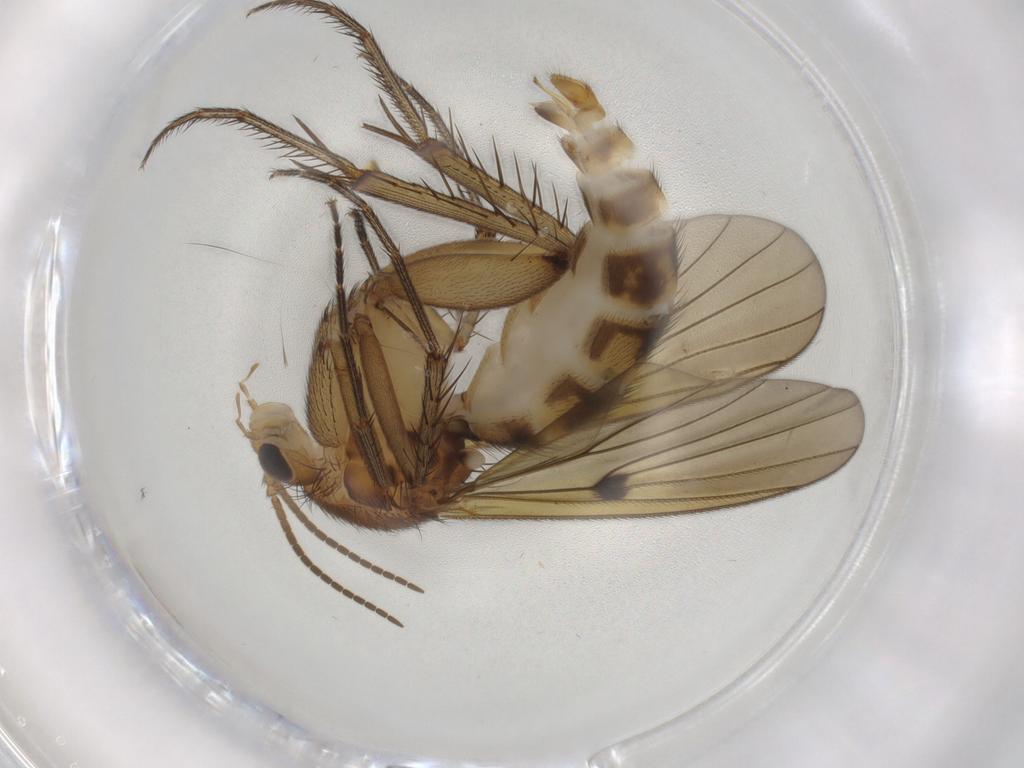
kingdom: Animalia
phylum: Arthropoda
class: Insecta
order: Diptera
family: Mycetophilidae
